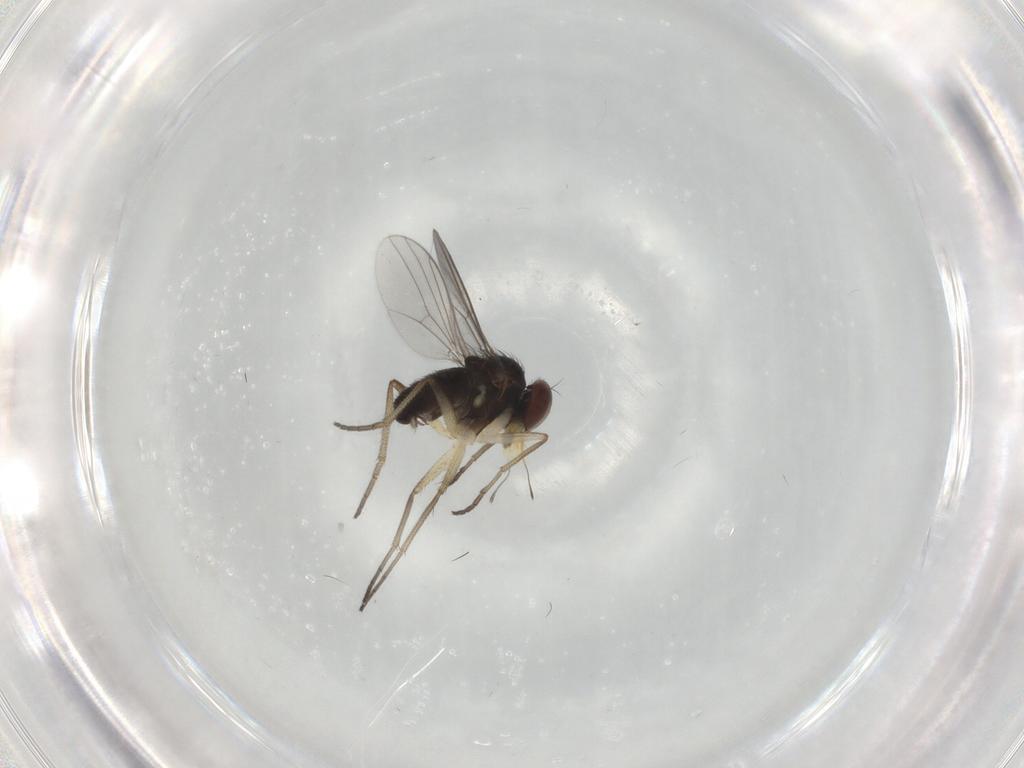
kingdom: Animalia
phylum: Arthropoda
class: Insecta
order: Diptera
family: Dolichopodidae
